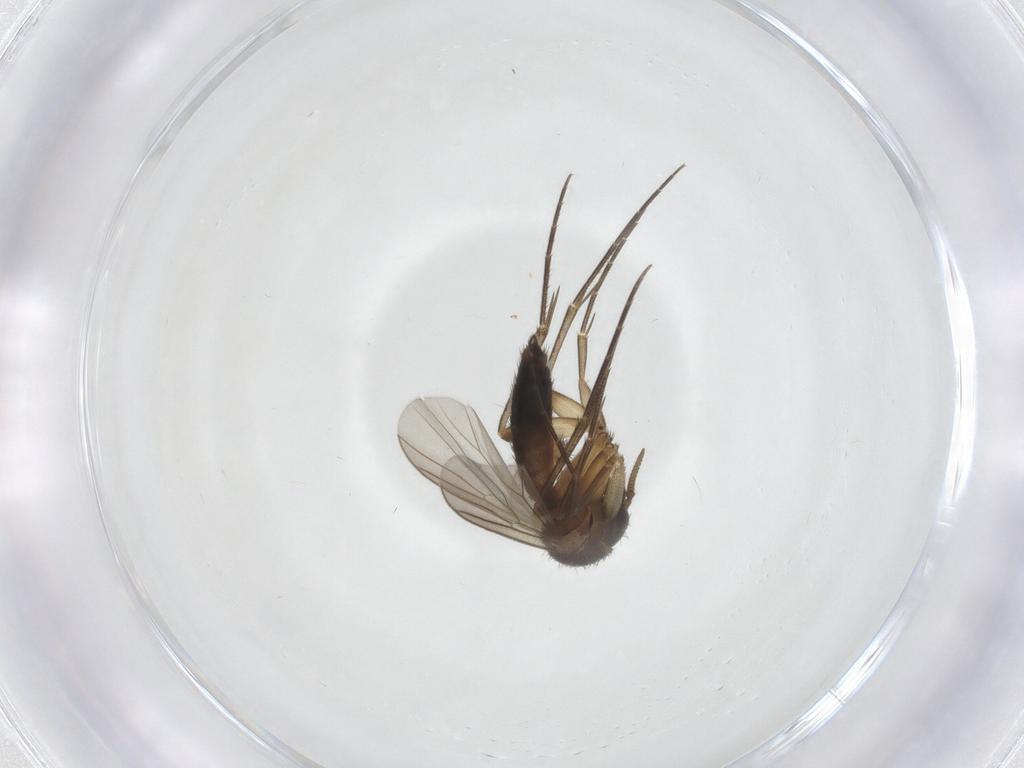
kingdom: Animalia
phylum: Arthropoda
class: Insecta
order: Diptera
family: Mycetophilidae
